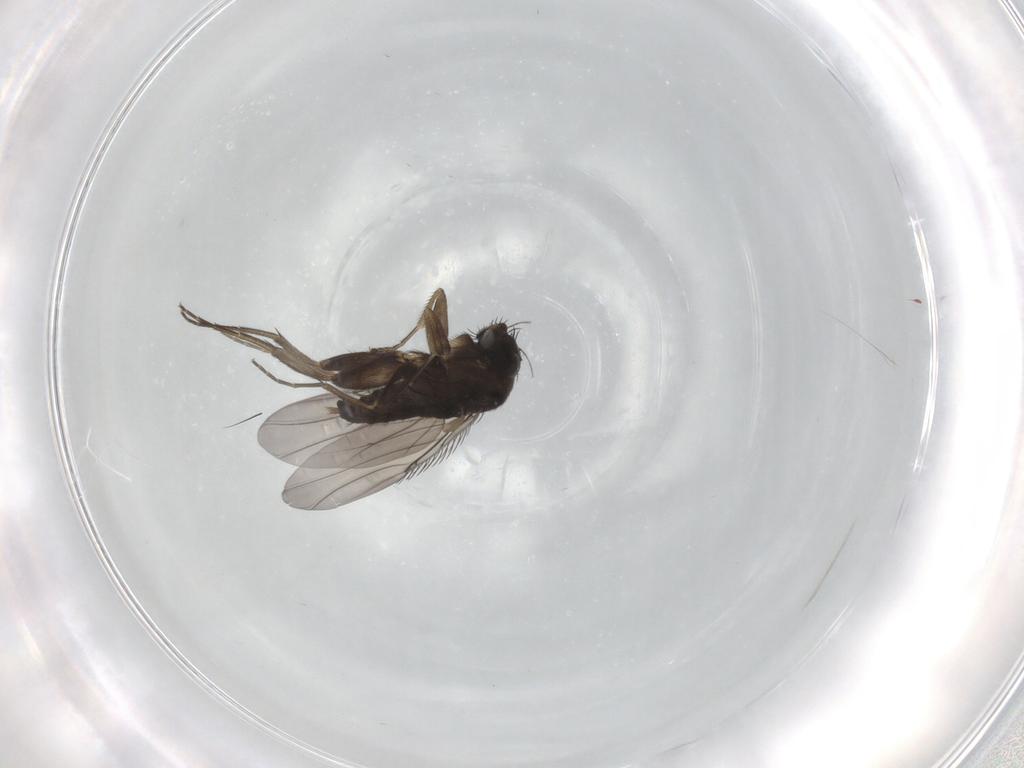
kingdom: Animalia
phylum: Arthropoda
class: Insecta
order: Diptera
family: Phoridae
